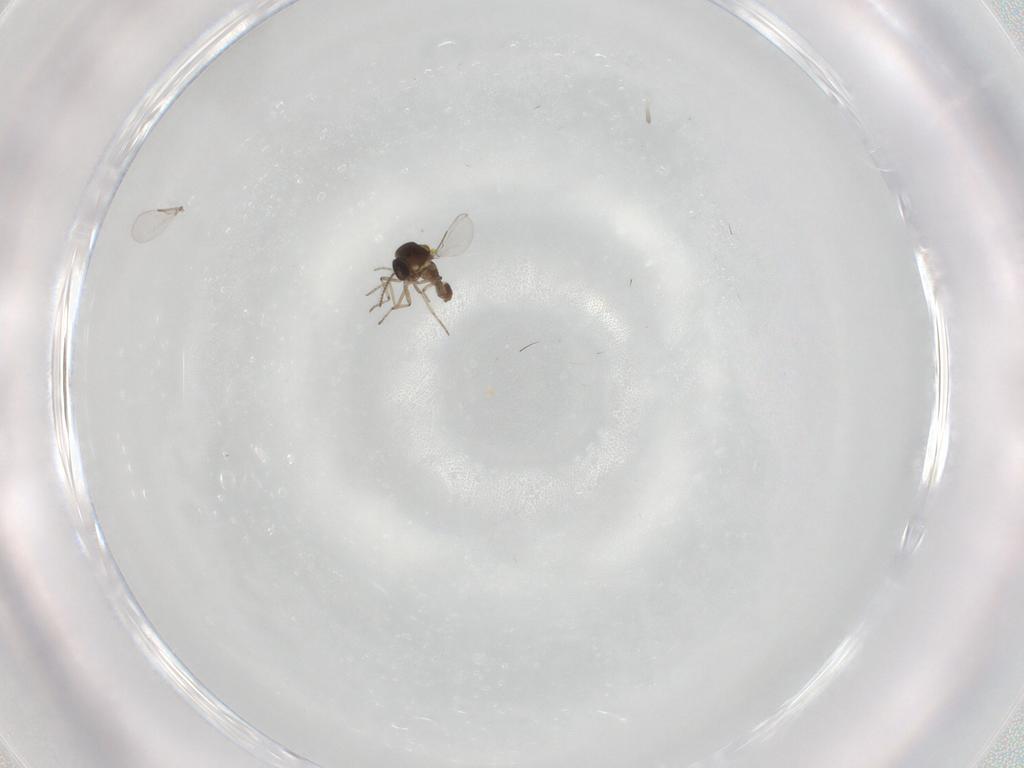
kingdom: Animalia
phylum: Arthropoda
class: Insecta
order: Diptera
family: Ceratopogonidae
